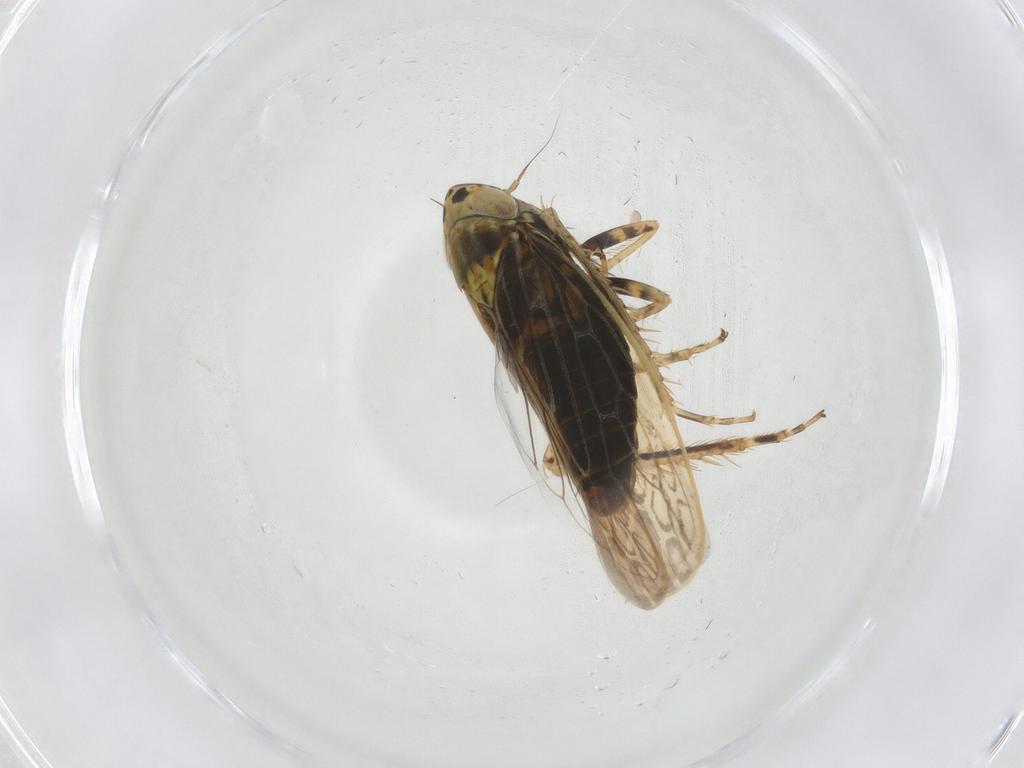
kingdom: Animalia
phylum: Arthropoda
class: Insecta
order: Hemiptera
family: Cicadellidae
